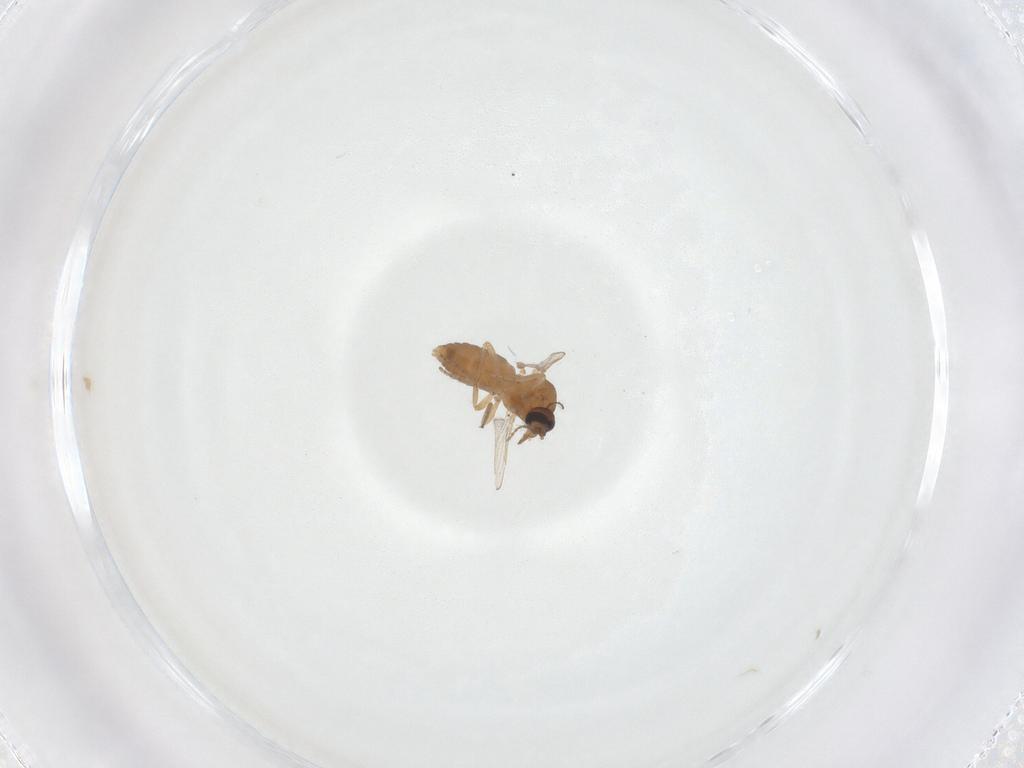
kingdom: Animalia
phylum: Arthropoda
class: Insecta
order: Diptera
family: Ceratopogonidae
